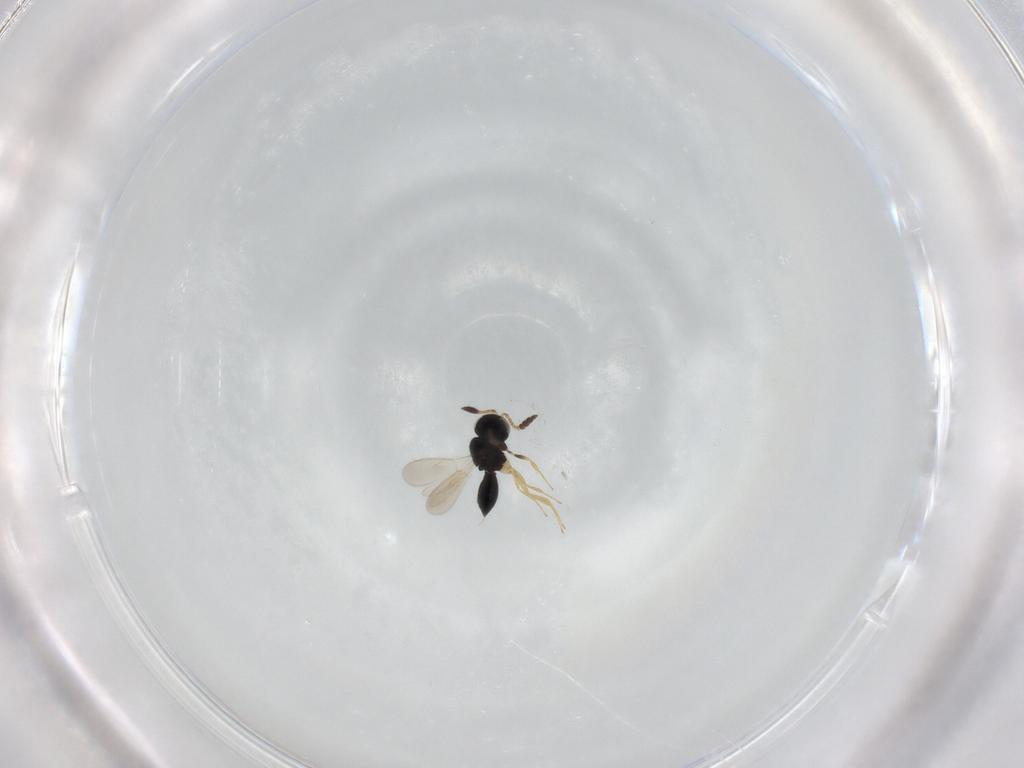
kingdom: Animalia
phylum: Arthropoda
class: Insecta
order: Hymenoptera
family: Scelionidae
